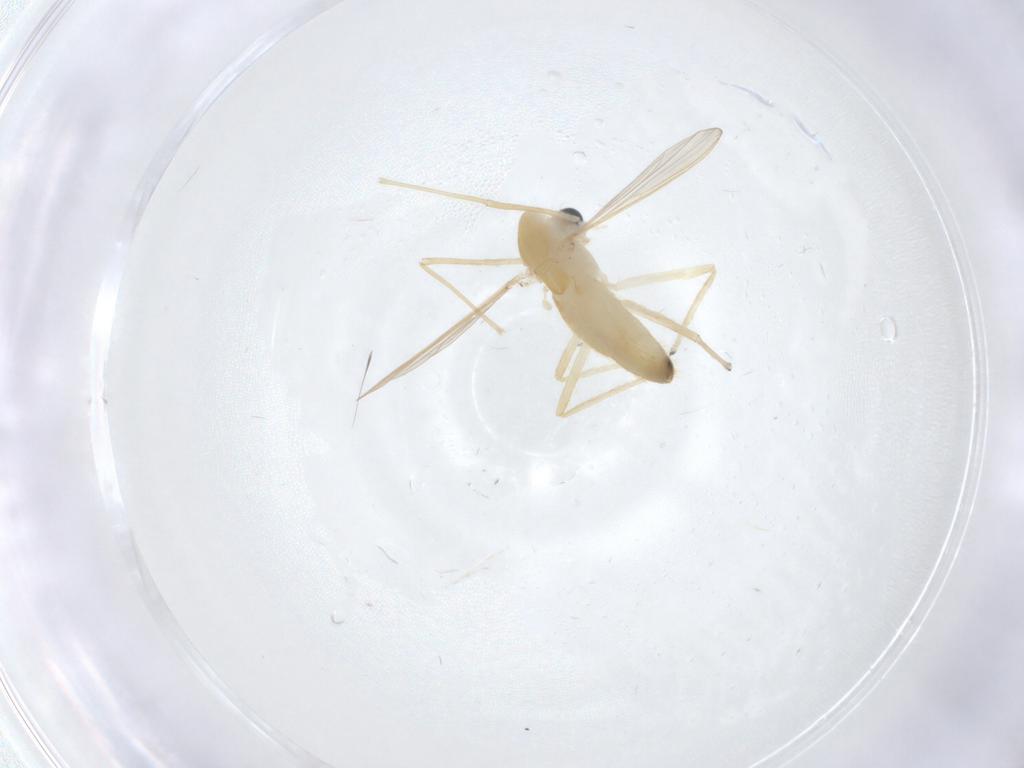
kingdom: Animalia
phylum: Arthropoda
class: Insecta
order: Diptera
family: Chironomidae
